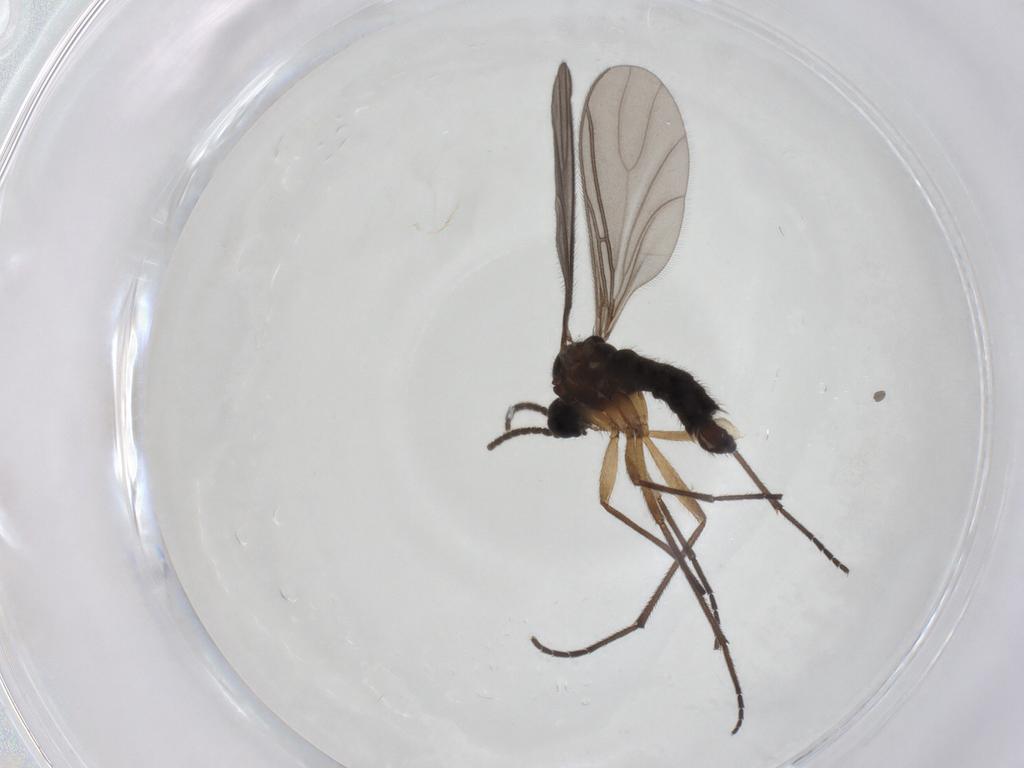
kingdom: Animalia
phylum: Arthropoda
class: Insecta
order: Diptera
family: Sciaridae
